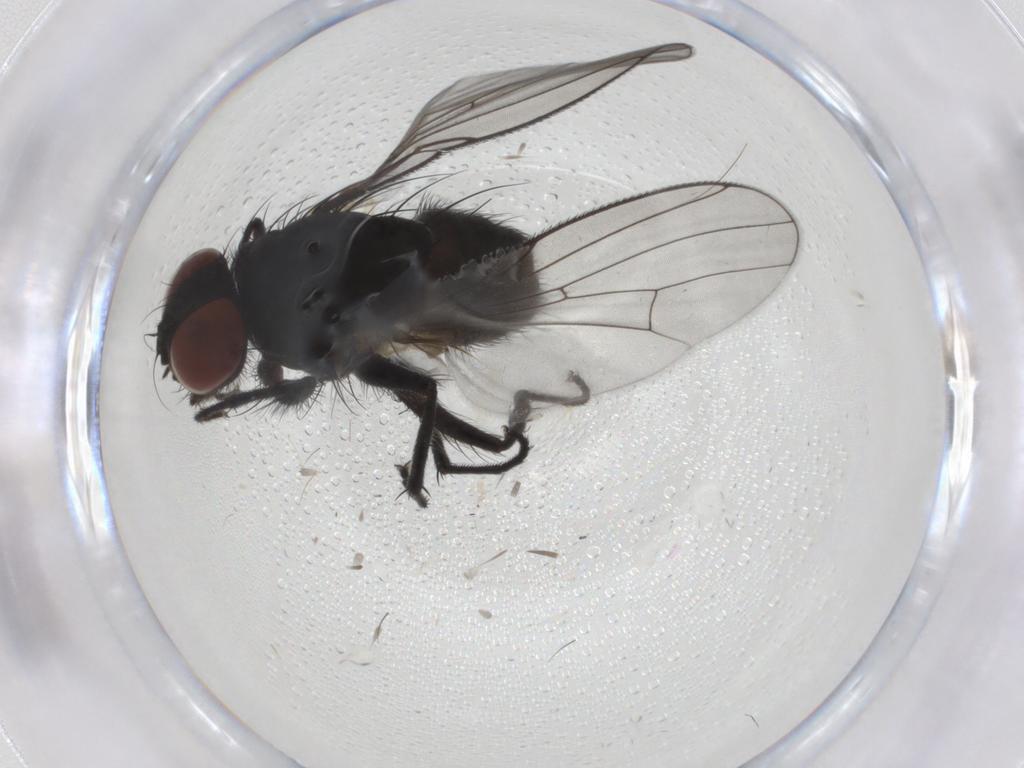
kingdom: Animalia
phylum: Arthropoda
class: Insecta
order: Diptera
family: Muscidae
